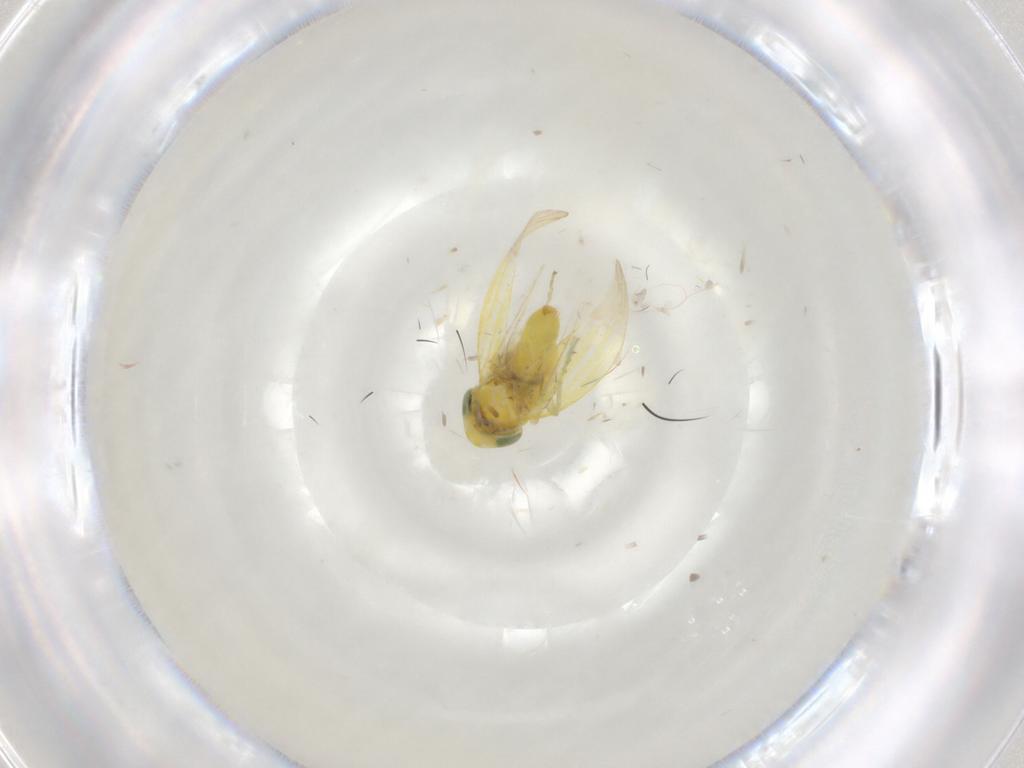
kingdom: Animalia
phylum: Arthropoda
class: Insecta
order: Hemiptera
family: Cicadellidae
